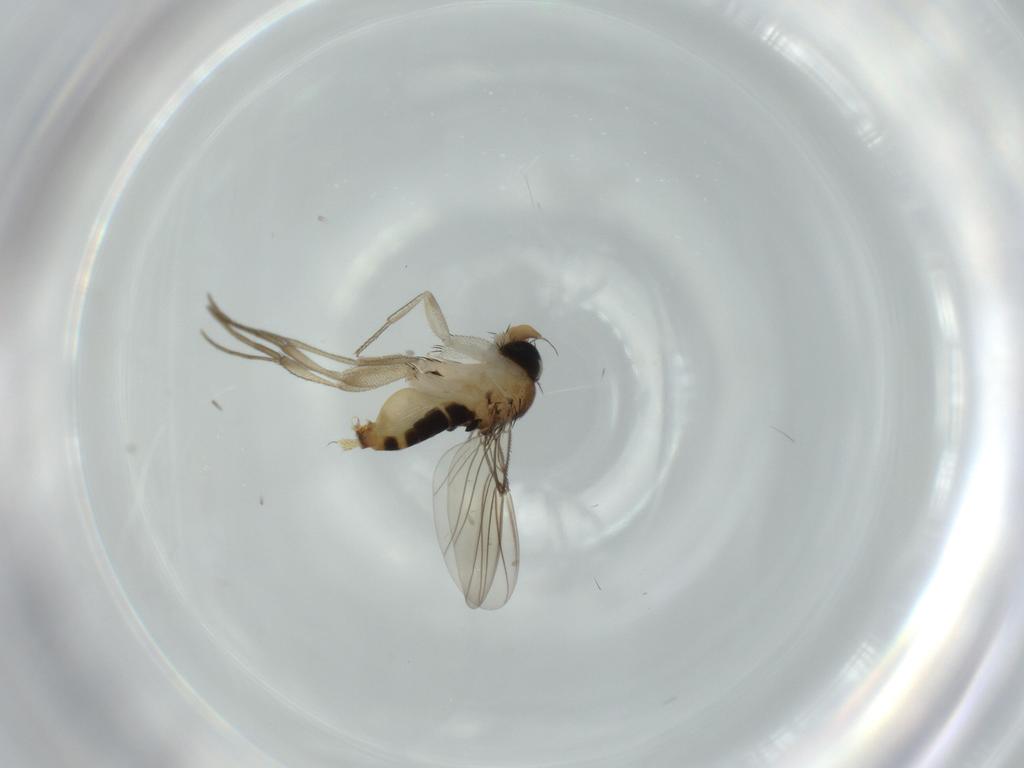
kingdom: Animalia
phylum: Arthropoda
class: Insecta
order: Diptera
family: Phoridae
